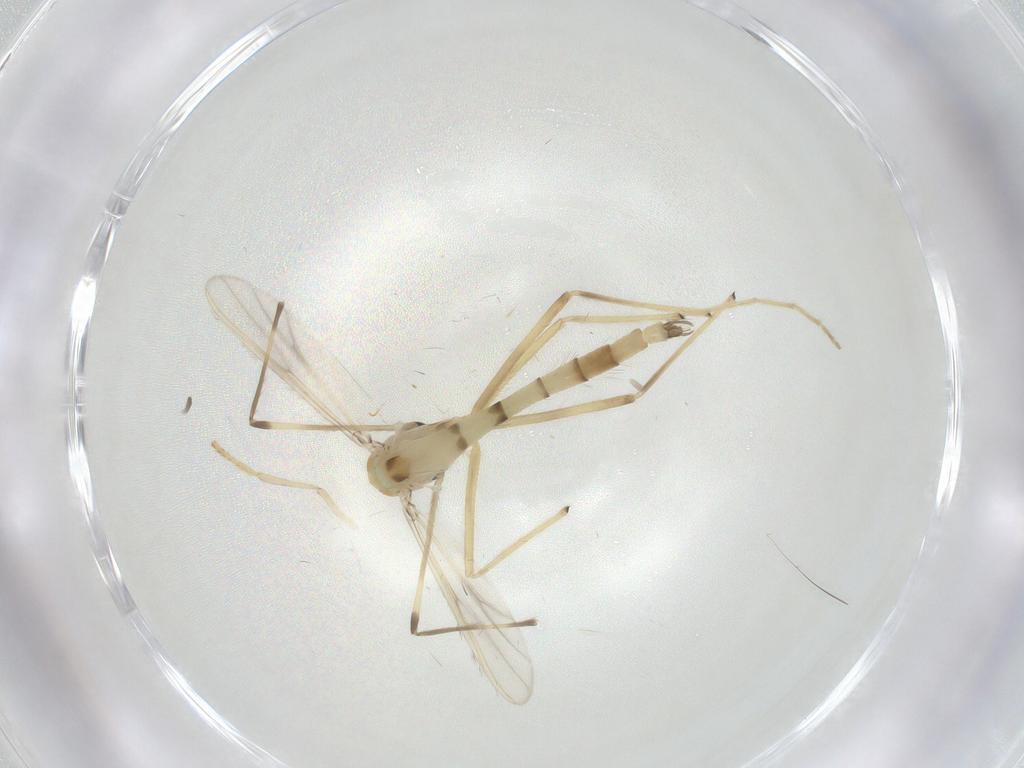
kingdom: Animalia
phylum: Arthropoda
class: Insecta
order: Diptera
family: Chironomidae
